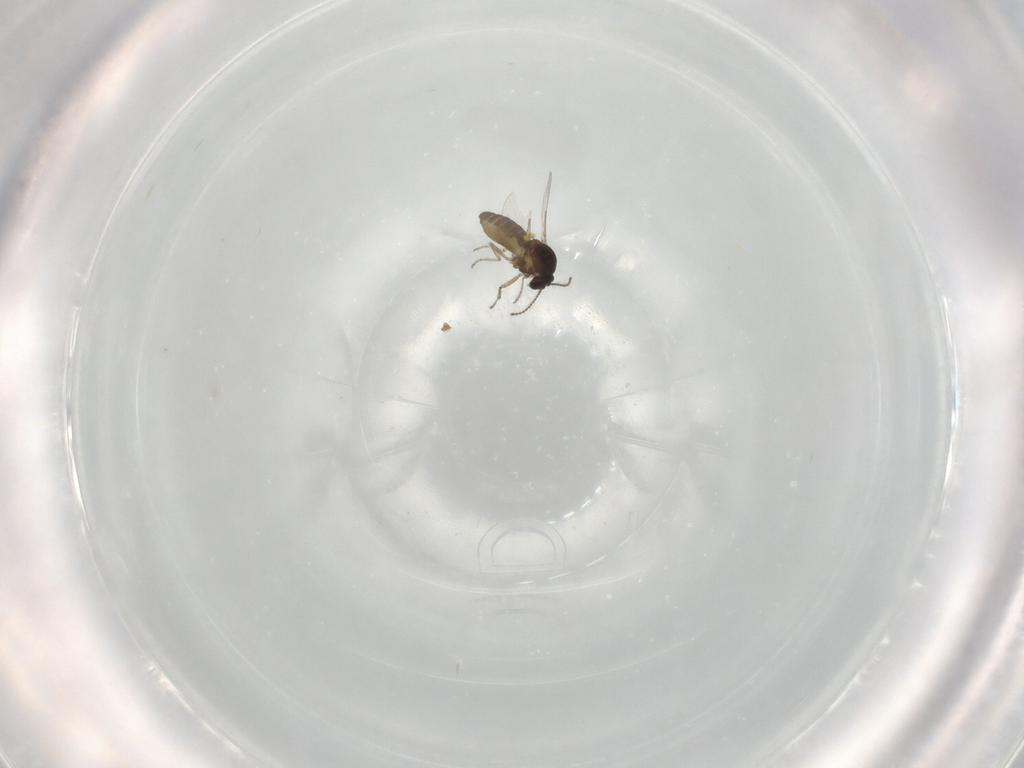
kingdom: Animalia
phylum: Arthropoda
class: Insecta
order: Diptera
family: Ceratopogonidae
